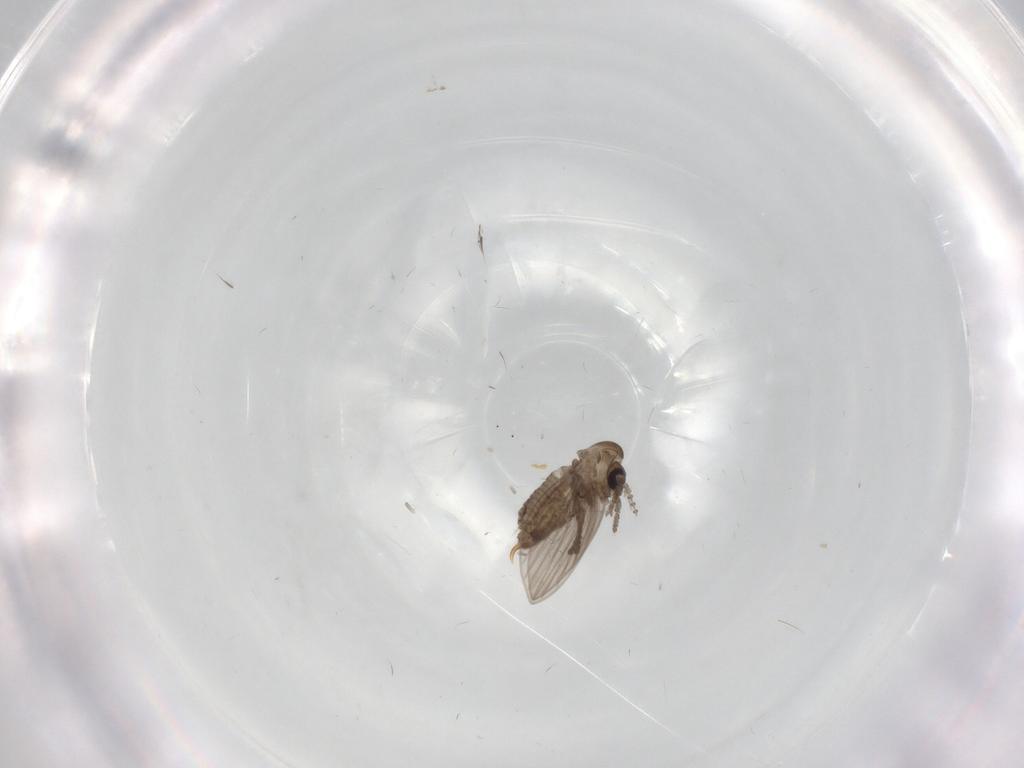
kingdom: Animalia
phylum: Arthropoda
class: Insecta
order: Diptera
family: Psychodidae
